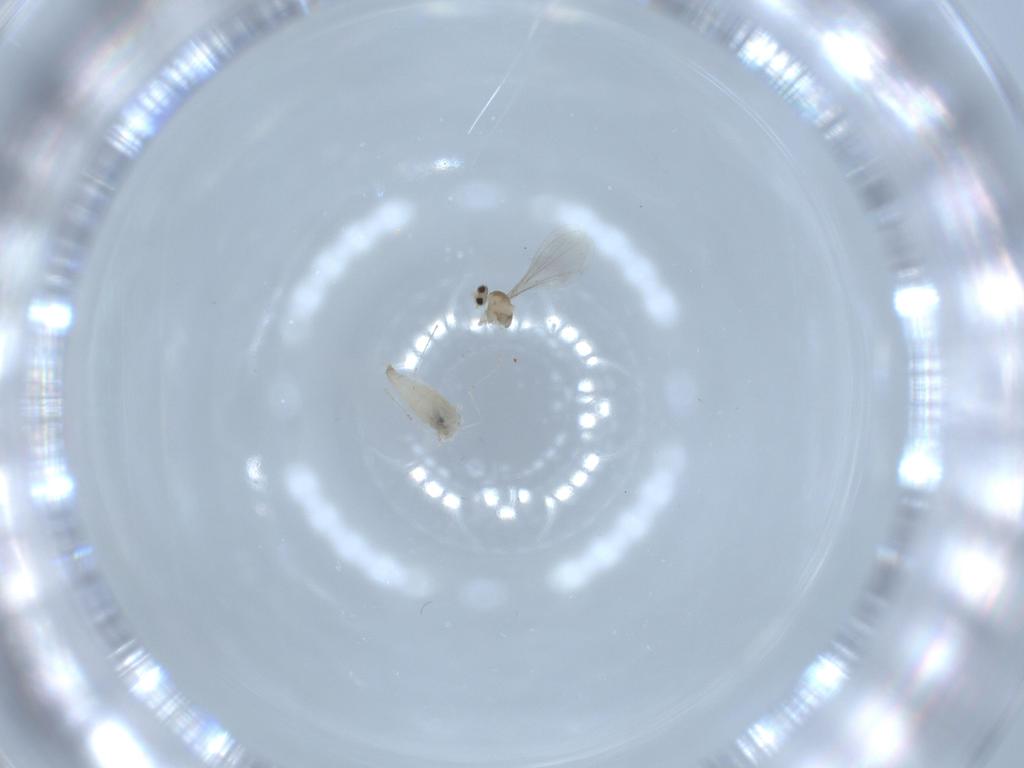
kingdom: Animalia
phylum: Arthropoda
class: Insecta
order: Diptera
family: Cecidomyiidae
